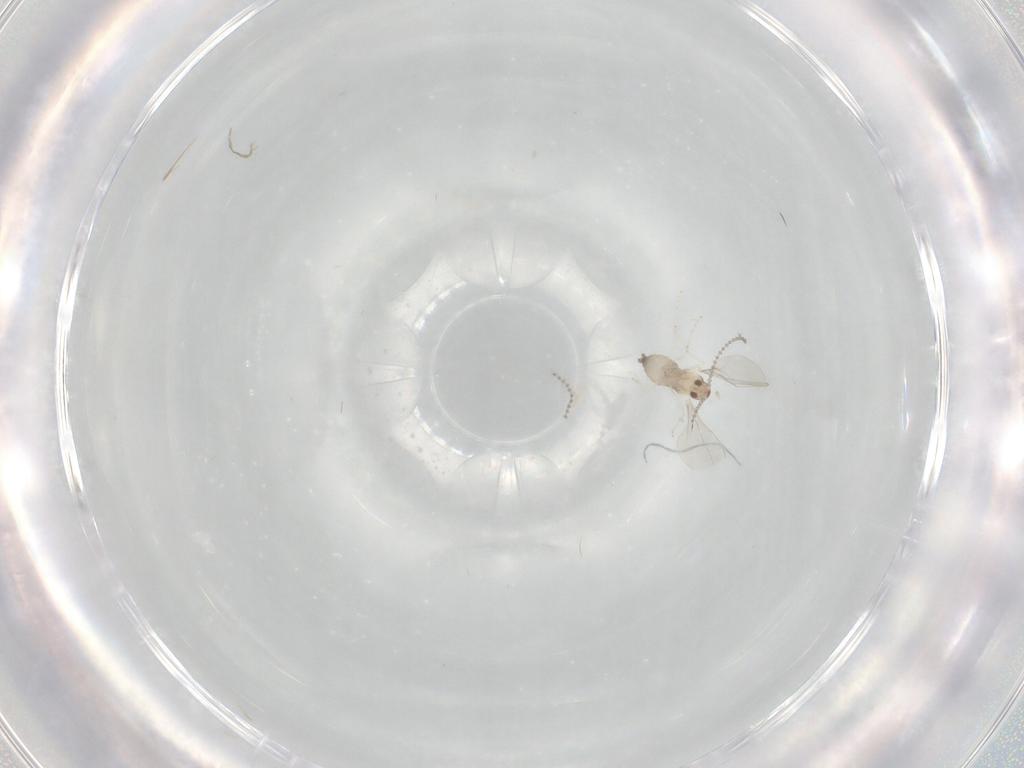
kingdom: Animalia
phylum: Arthropoda
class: Insecta
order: Diptera
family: Cecidomyiidae
